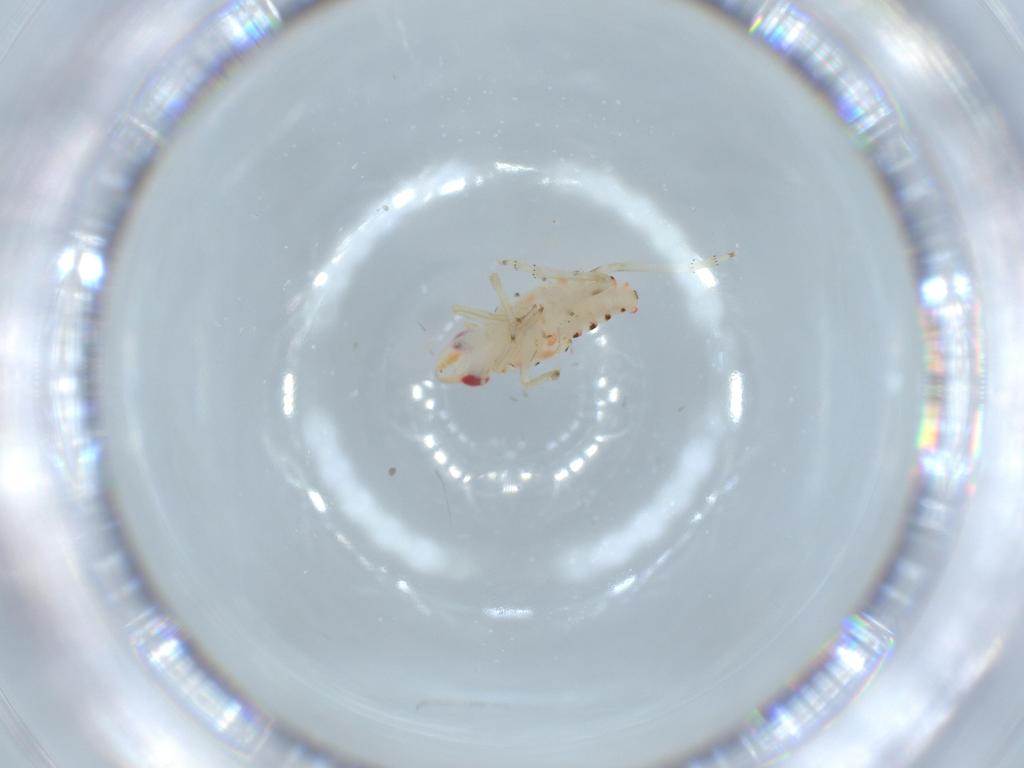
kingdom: Animalia
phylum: Arthropoda
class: Insecta
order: Hemiptera
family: Tropiduchidae
